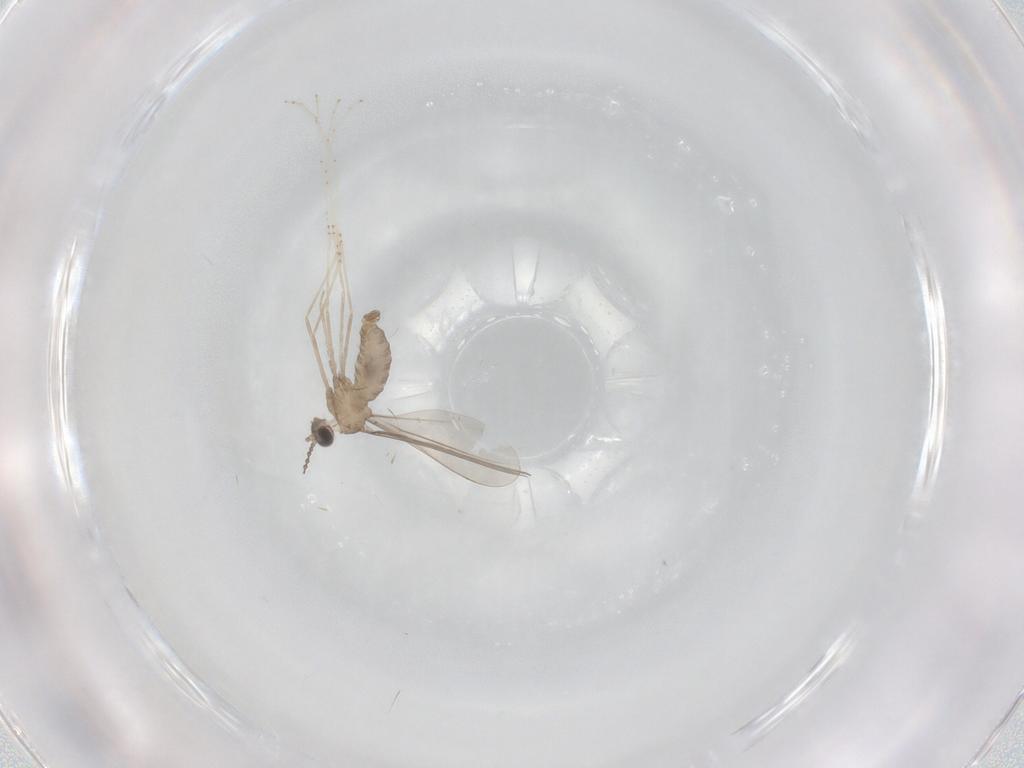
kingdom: Animalia
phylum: Arthropoda
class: Insecta
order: Diptera
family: Cecidomyiidae
